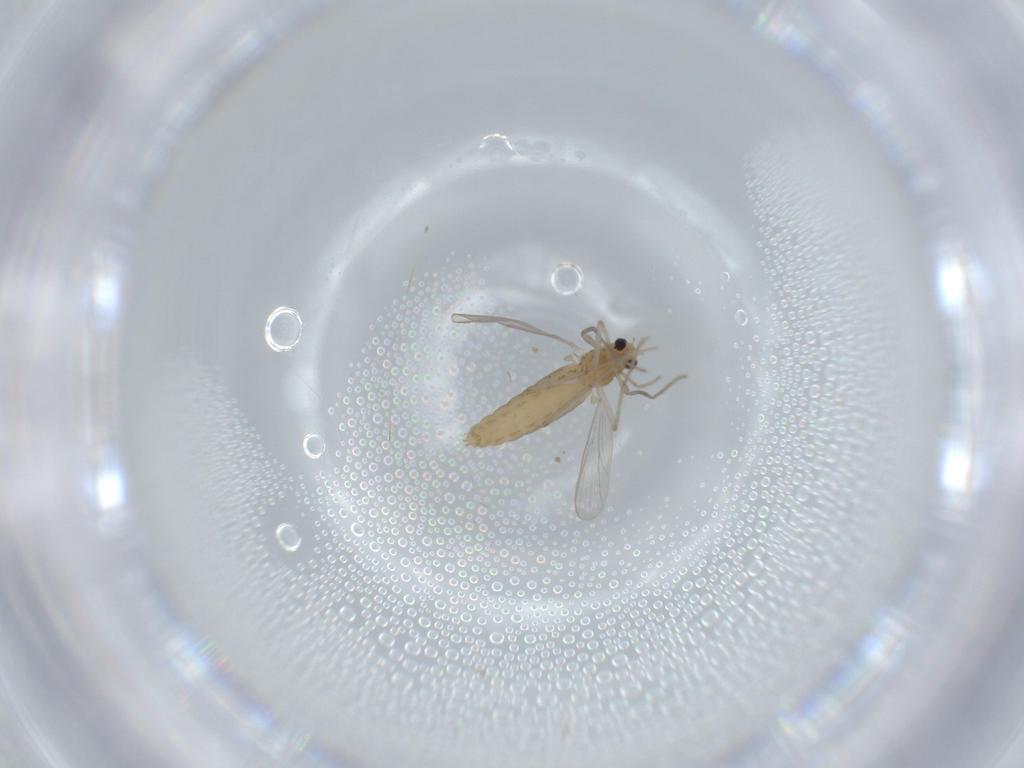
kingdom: Animalia
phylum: Arthropoda
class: Insecta
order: Diptera
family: Chironomidae
